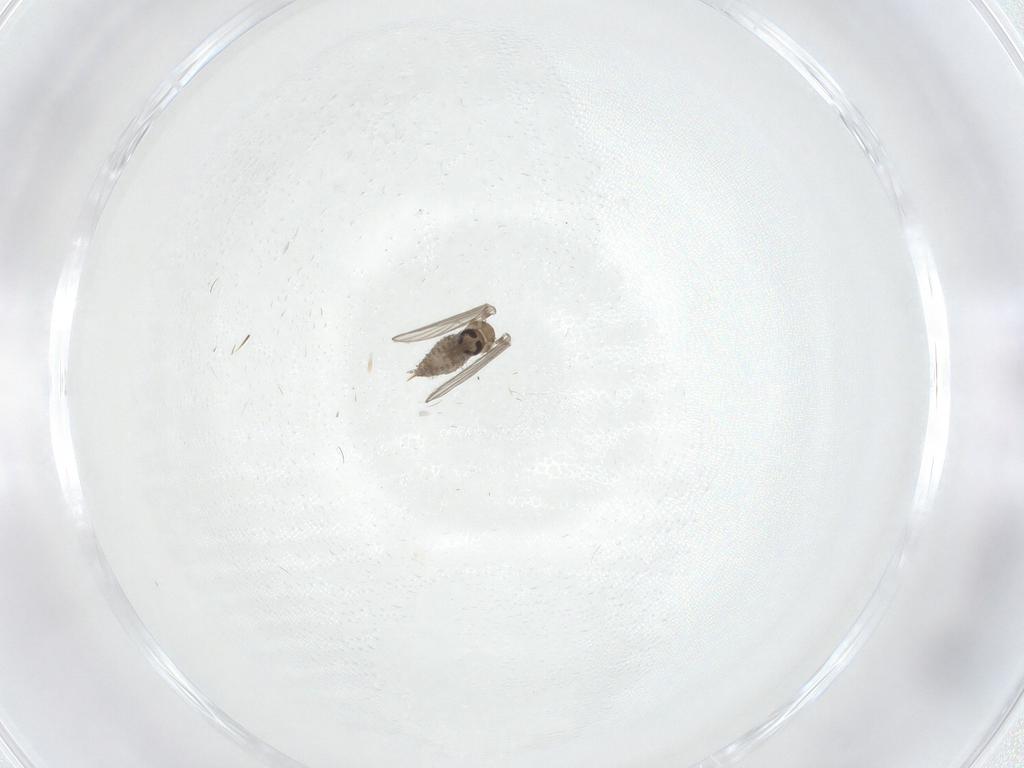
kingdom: Animalia
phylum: Arthropoda
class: Insecta
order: Diptera
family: Psychodidae
